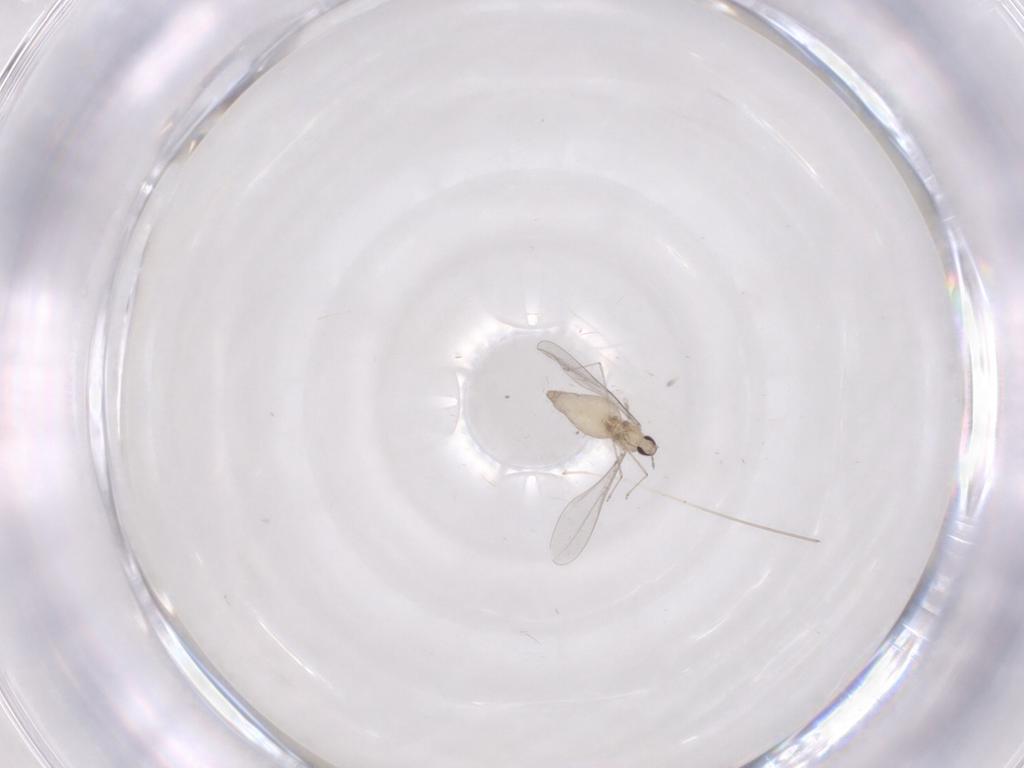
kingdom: Animalia
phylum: Arthropoda
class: Insecta
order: Diptera
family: Cecidomyiidae
